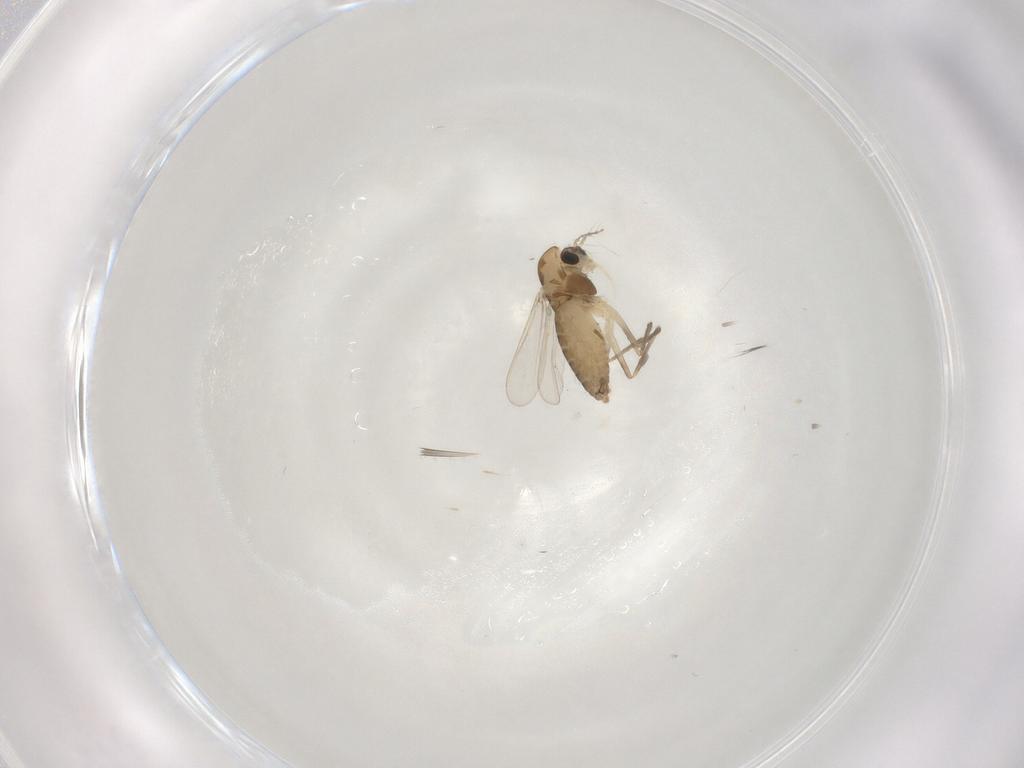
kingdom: Animalia
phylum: Arthropoda
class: Insecta
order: Diptera
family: Chironomidae
